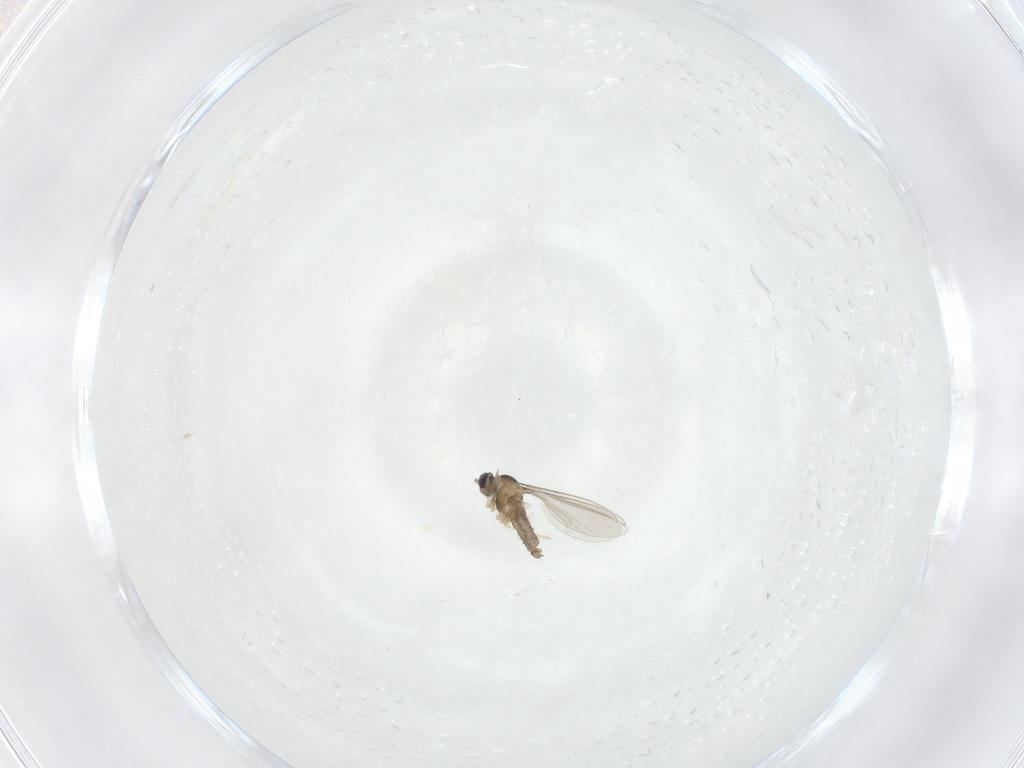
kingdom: Animalia
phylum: Arthropoda
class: Insecta
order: Diptera
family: Cecidomyiidae
